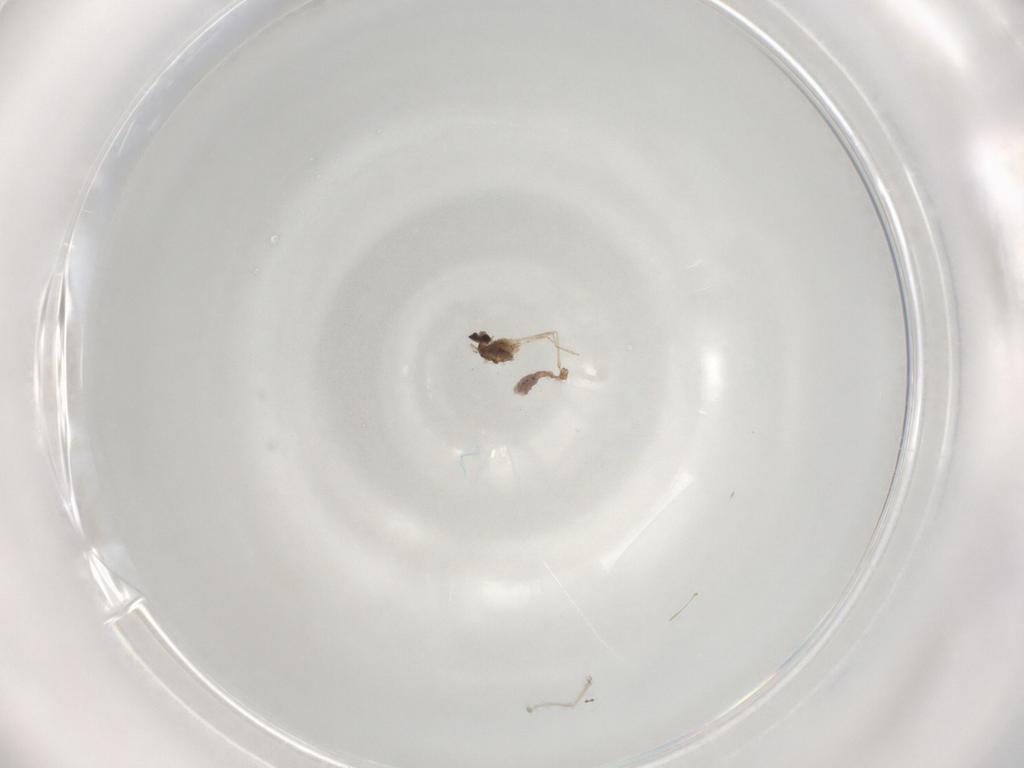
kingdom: Animalia
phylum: Arthropoda
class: Insecta
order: Diptera
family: Cecidomyiidae
